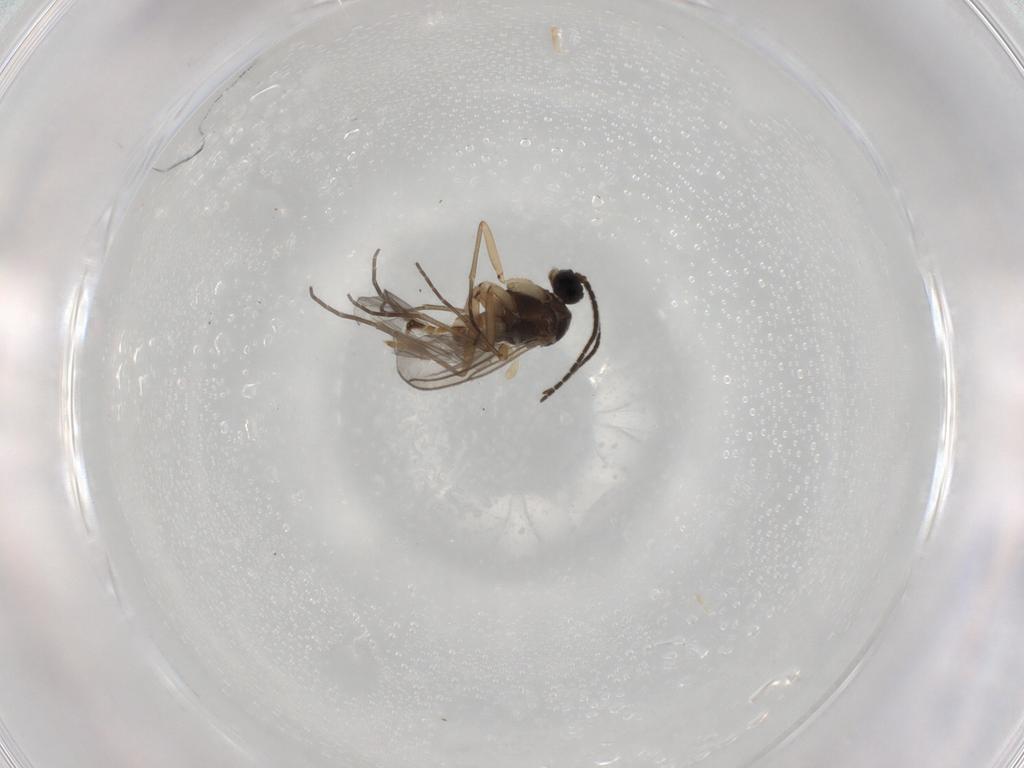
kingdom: Animalia
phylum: Arthropoda
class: Insecta
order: Diptera
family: Sciaridae
